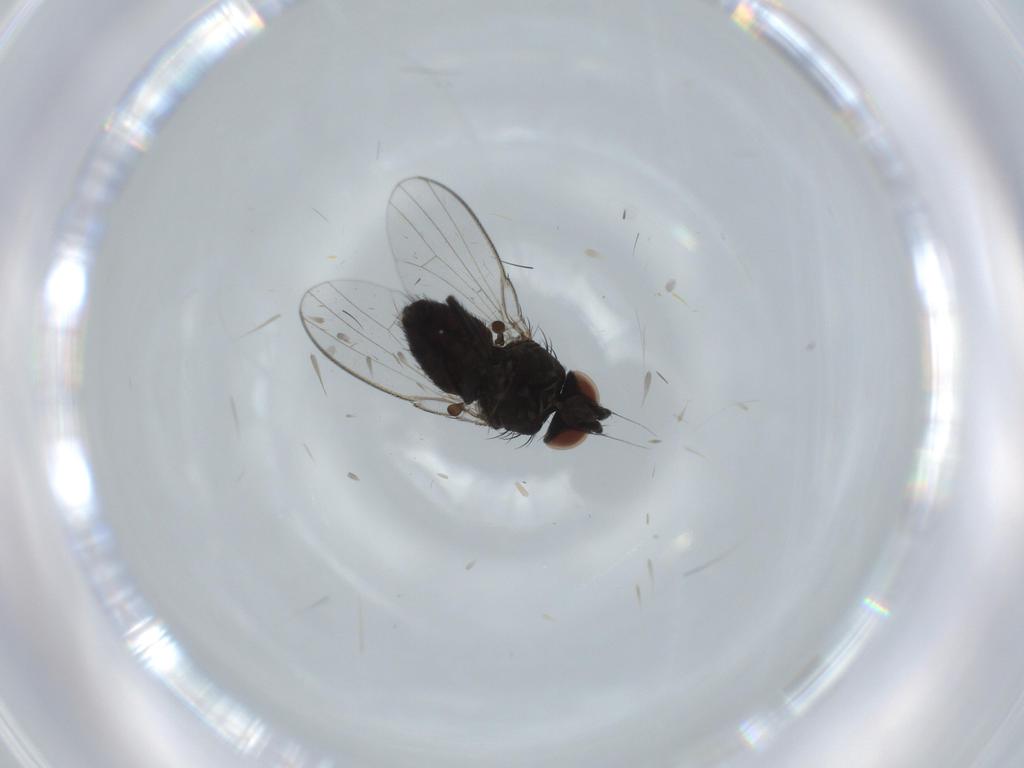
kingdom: Animalia
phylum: Arthropoda
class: Insecta
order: Diptera
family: Milichiidae
